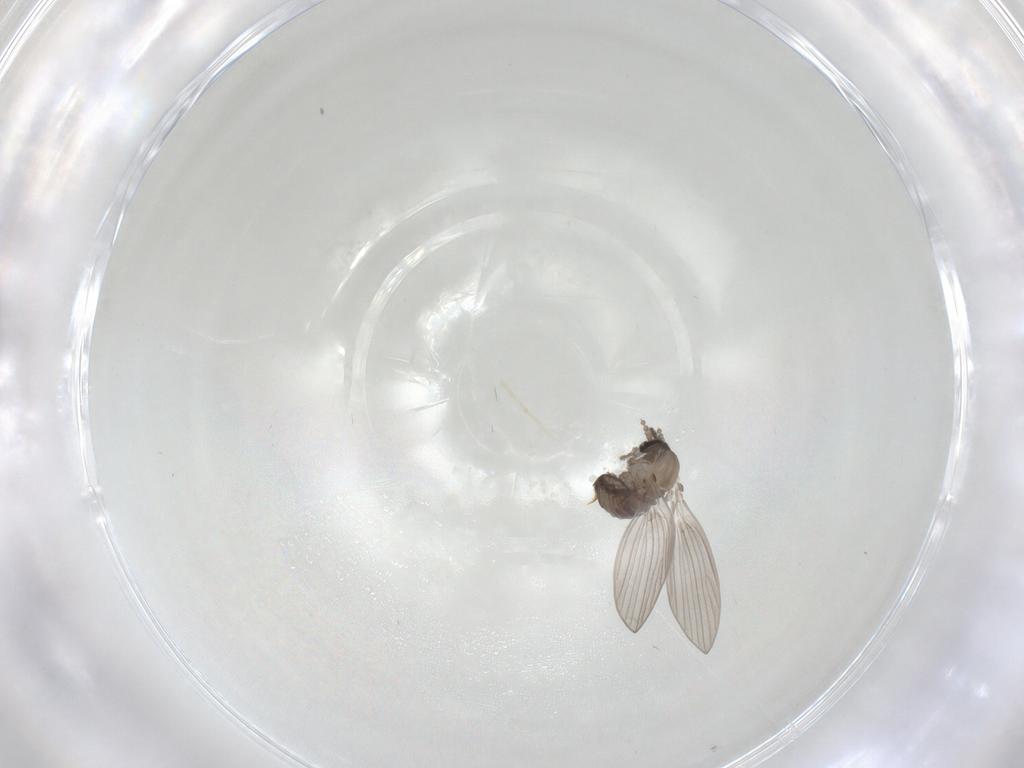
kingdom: Animalia
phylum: Arthropoda
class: Insecta
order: Diptera
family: Psychodidae
